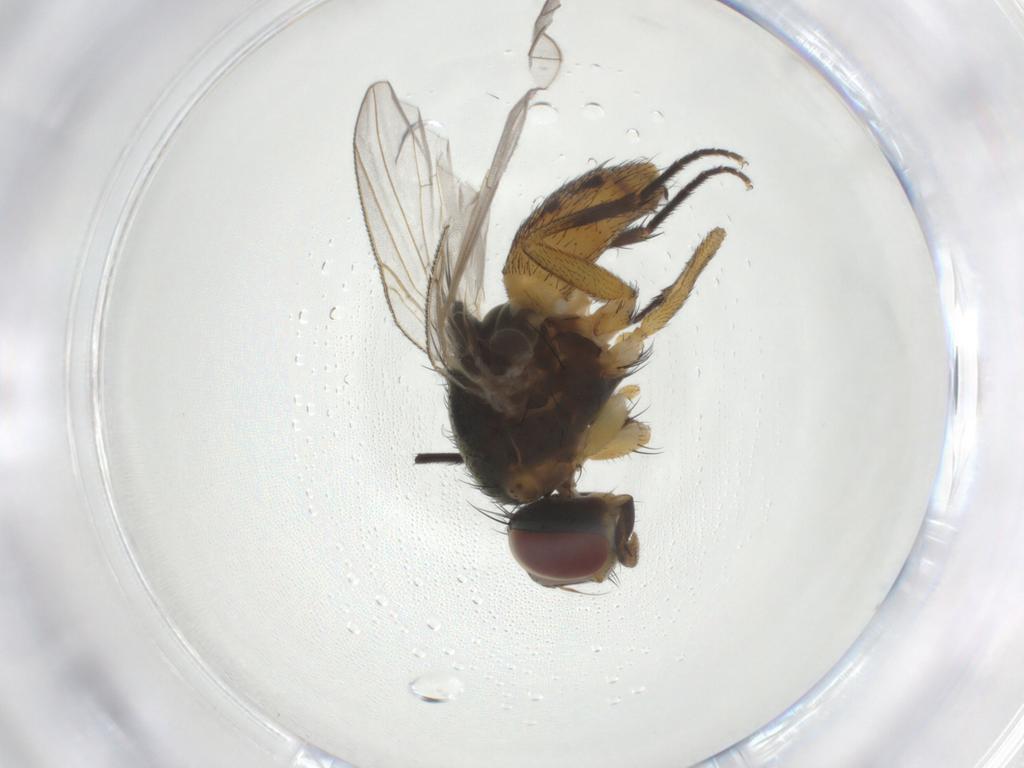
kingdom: Animalia
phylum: Arthropoda
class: Insecta
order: Diptera
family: Muscidae
